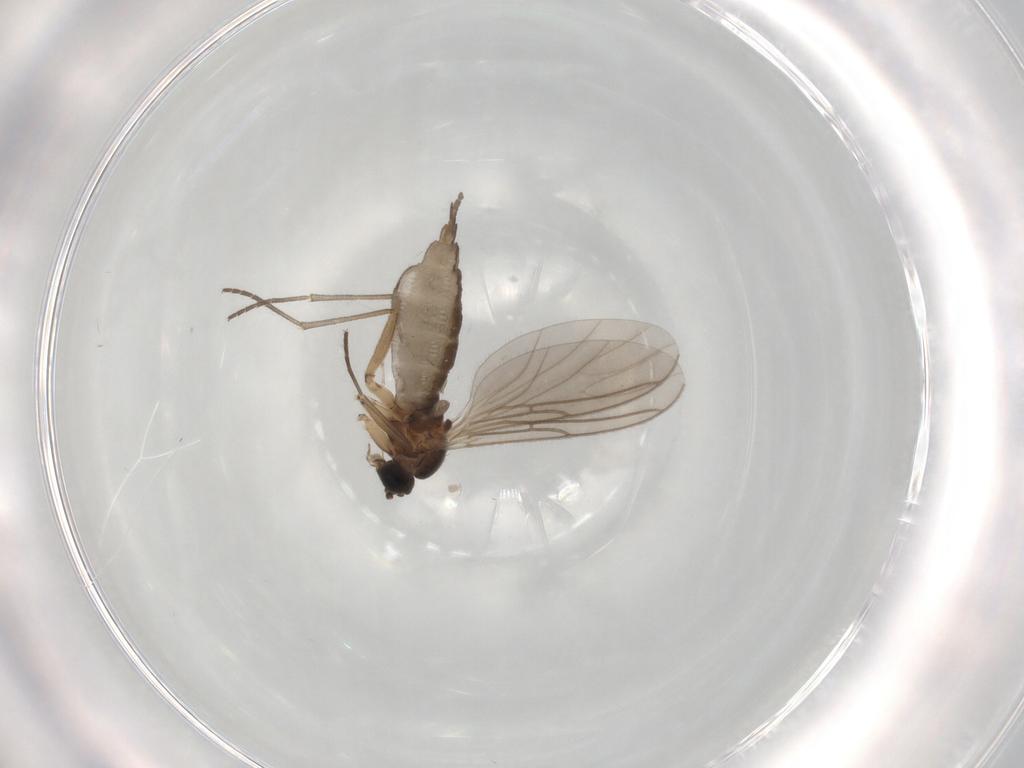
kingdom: Animalia
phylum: Arthropoda
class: Insecta
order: Diptera
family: Sciaridae
